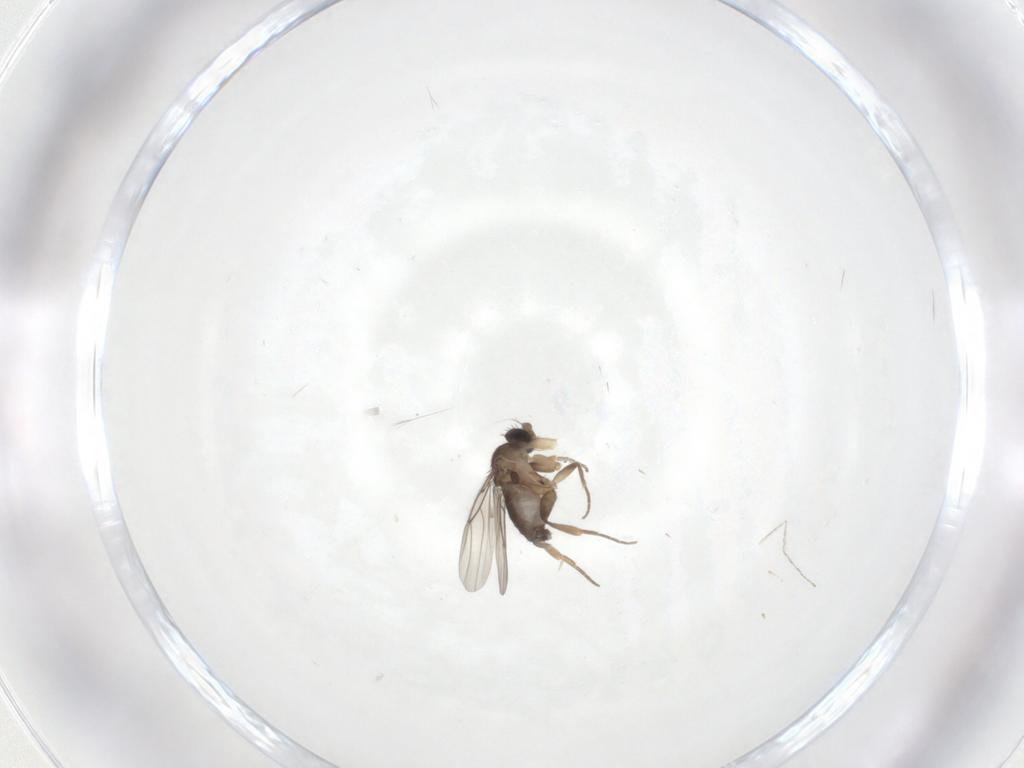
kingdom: Animalia
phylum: Arthropoda
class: Insecta
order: Diptera
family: Phoridae
